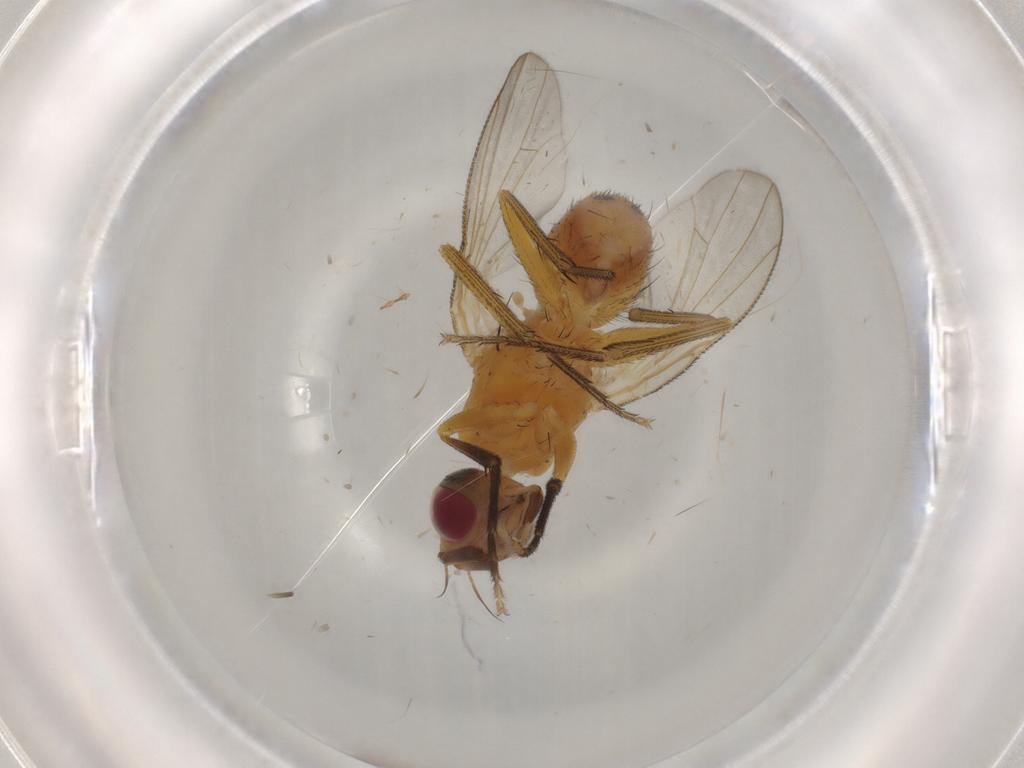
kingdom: Animalia
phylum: Arthropoda
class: Insecta
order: Diptera
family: Muscidae
